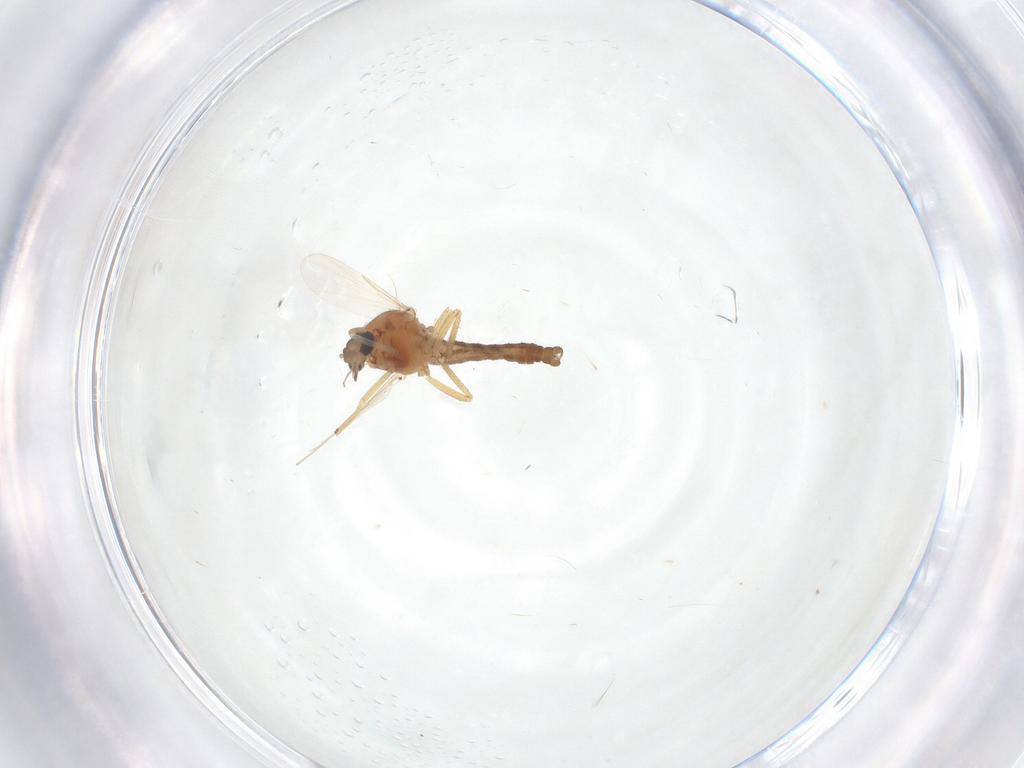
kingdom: Animalia
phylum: Arthropoda
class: Insecta
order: Diptera
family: Ceratopogonidae
